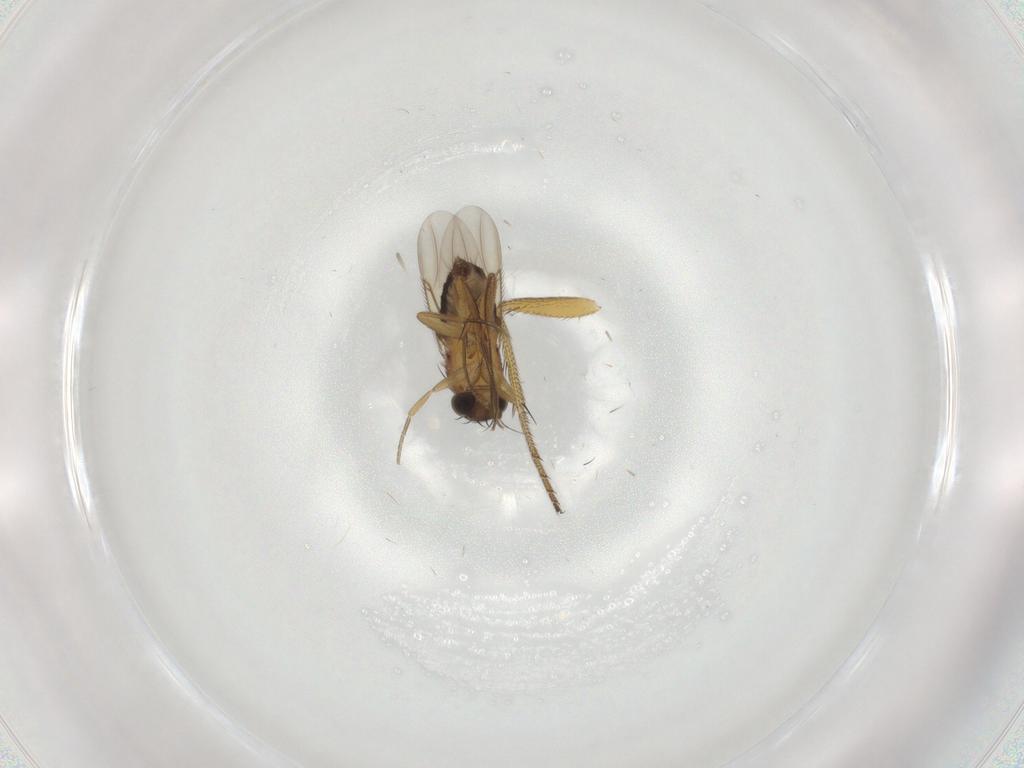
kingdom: Animalia
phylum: Arthropoda
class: Insecta
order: Diptera
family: Dolichopodidae
